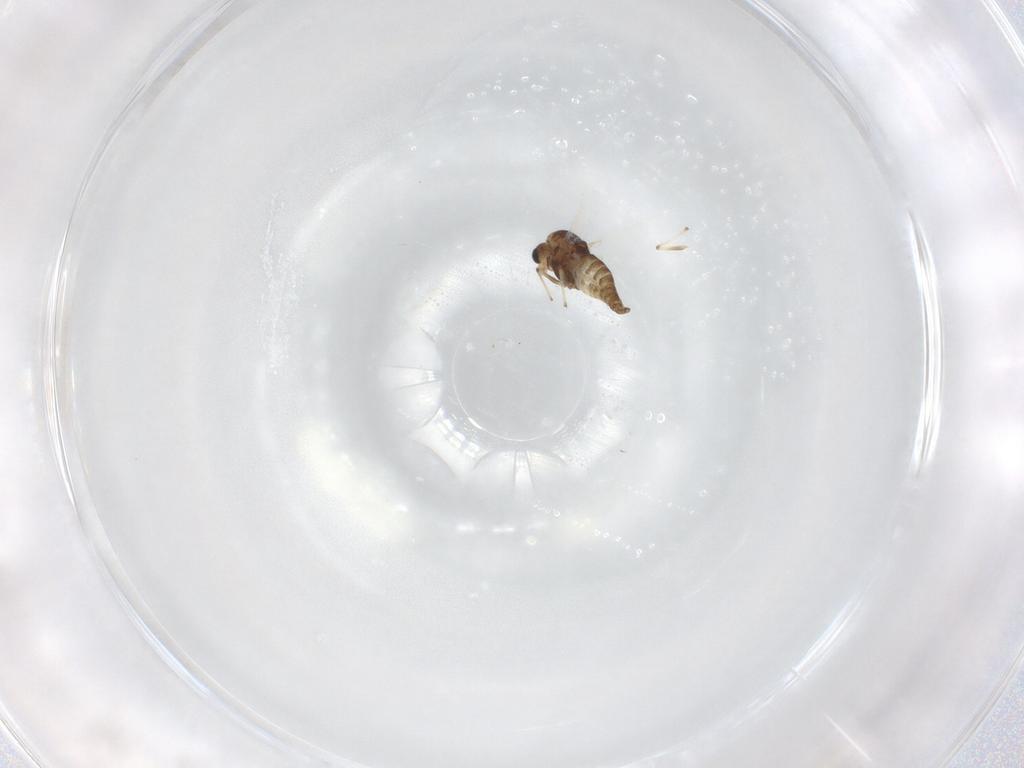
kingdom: Animalia
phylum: Arthropoda
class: Insecta
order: Diptera
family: Chironomidae
